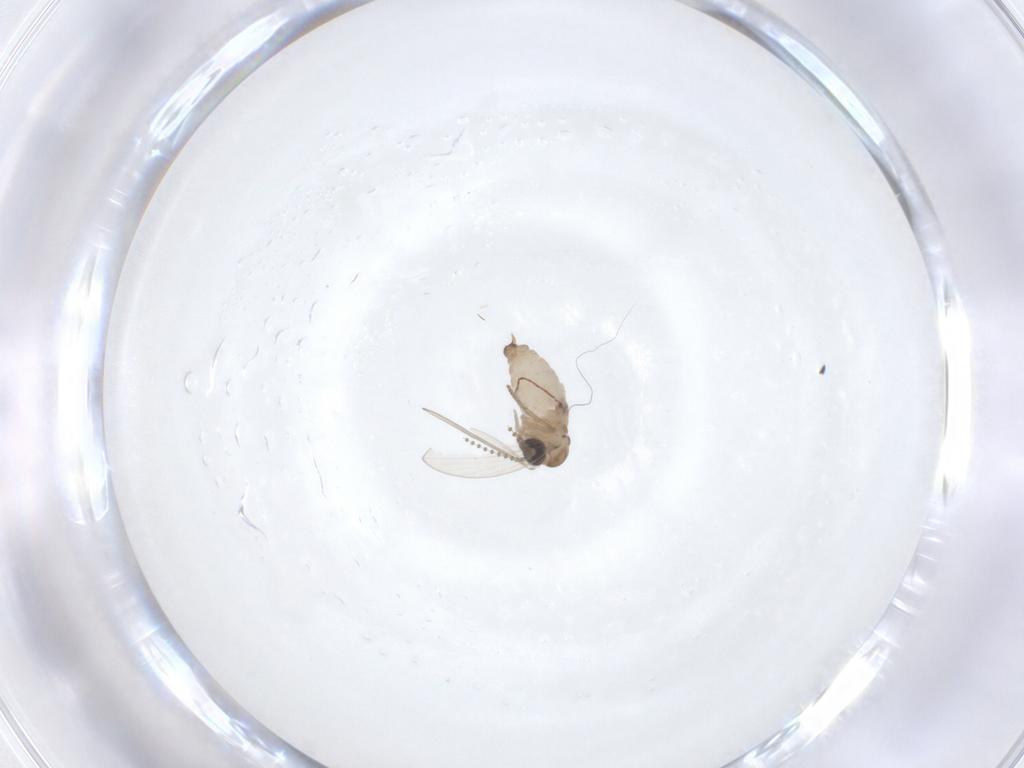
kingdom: Animalia
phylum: Arthropoda
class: Insecta
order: Diptera
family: Psychodidae
